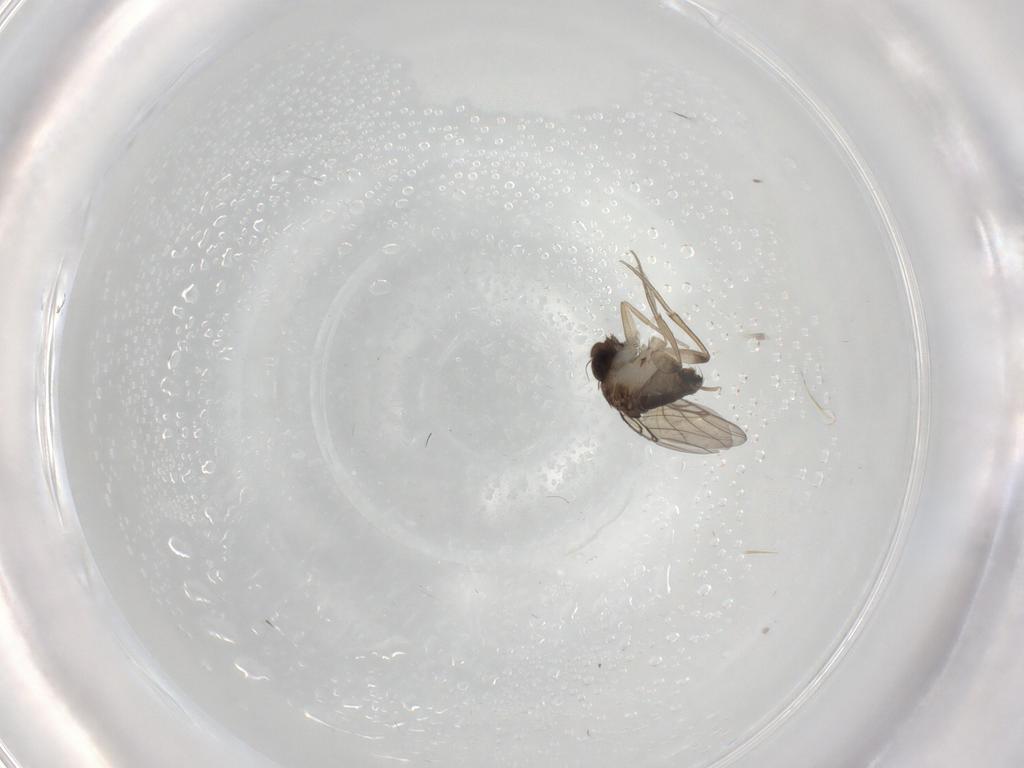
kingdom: Animalia
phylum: Arthropoda
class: Insecta
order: Diptera
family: Phoridae
